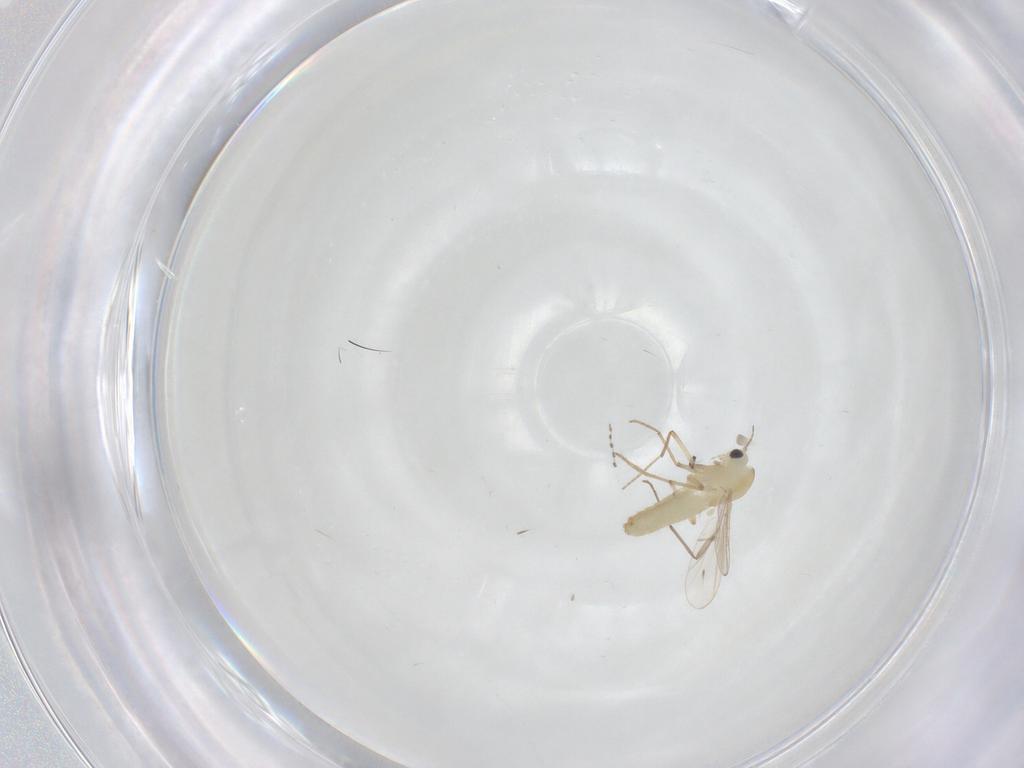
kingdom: Animalia
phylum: Arthropoda
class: Insecta
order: Diptera
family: Chironomidae
